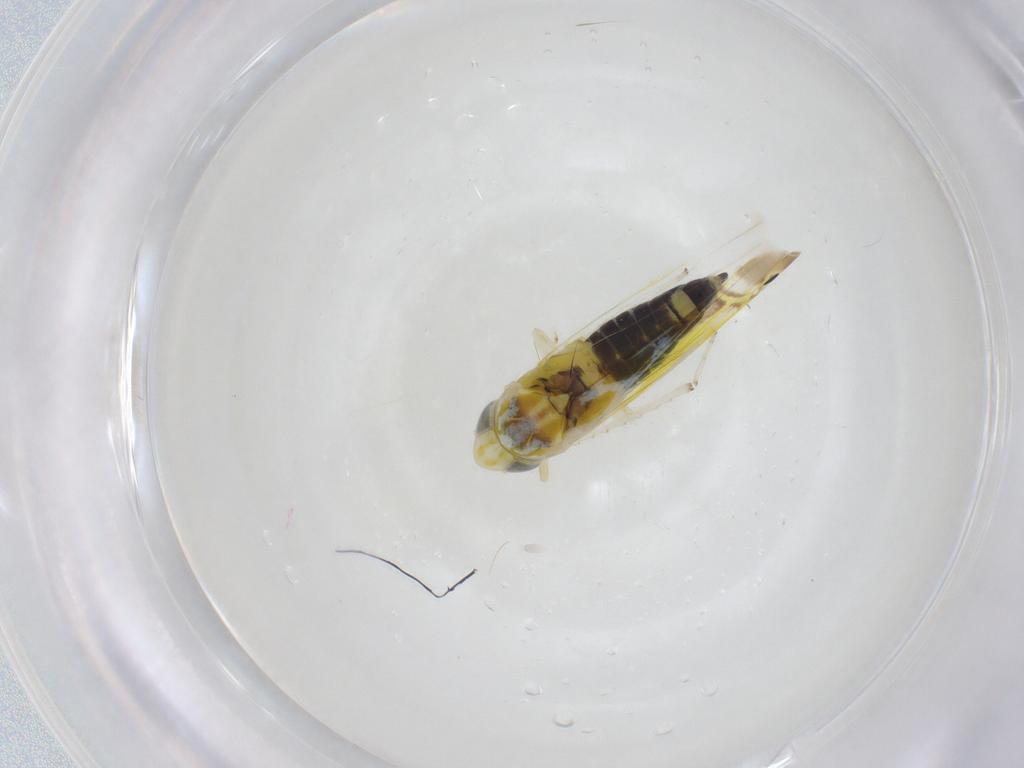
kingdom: Animalia
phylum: Arthropoda
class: Insecta
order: Hemiptera
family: Cicadellidae
